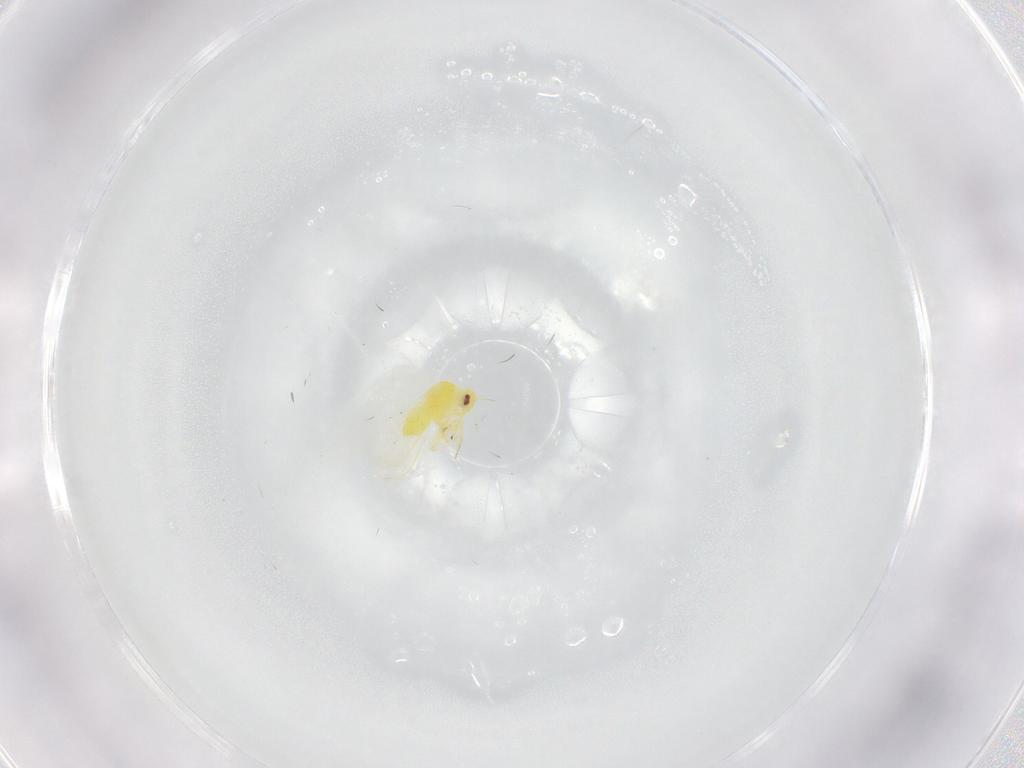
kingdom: Animalia
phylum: Arthropoda
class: Insecta
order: Hemiptera
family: Aleyrodidae
